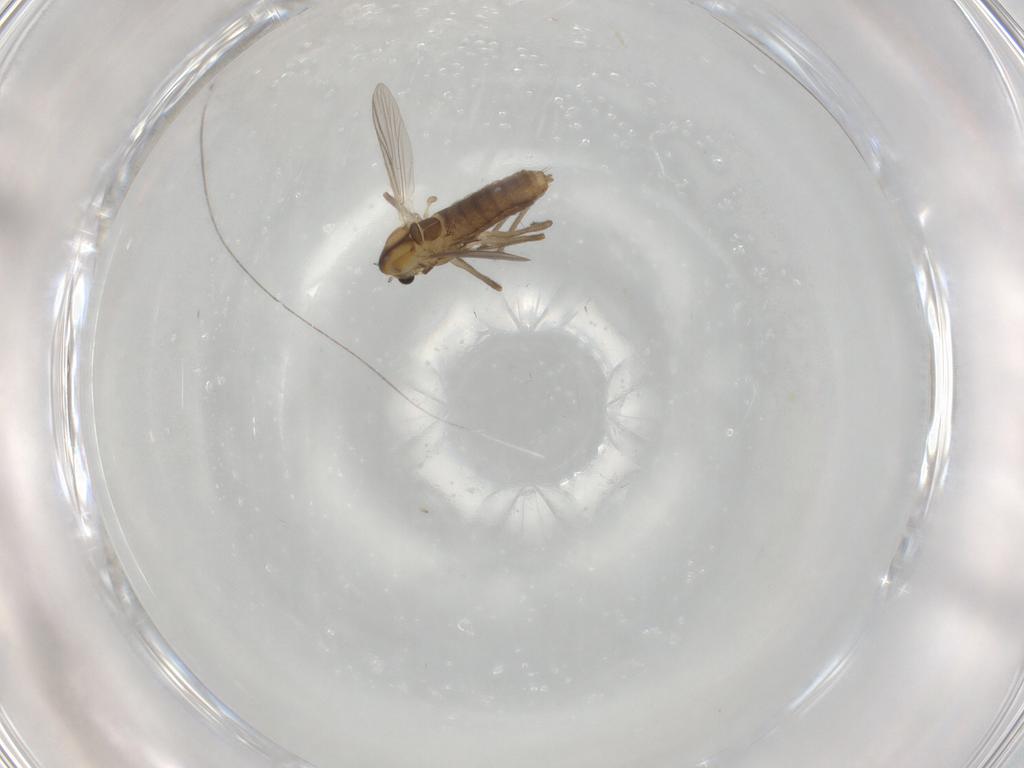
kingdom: Animalia
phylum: Arthropoda
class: Insecta
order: Diptera
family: Chironomidae
